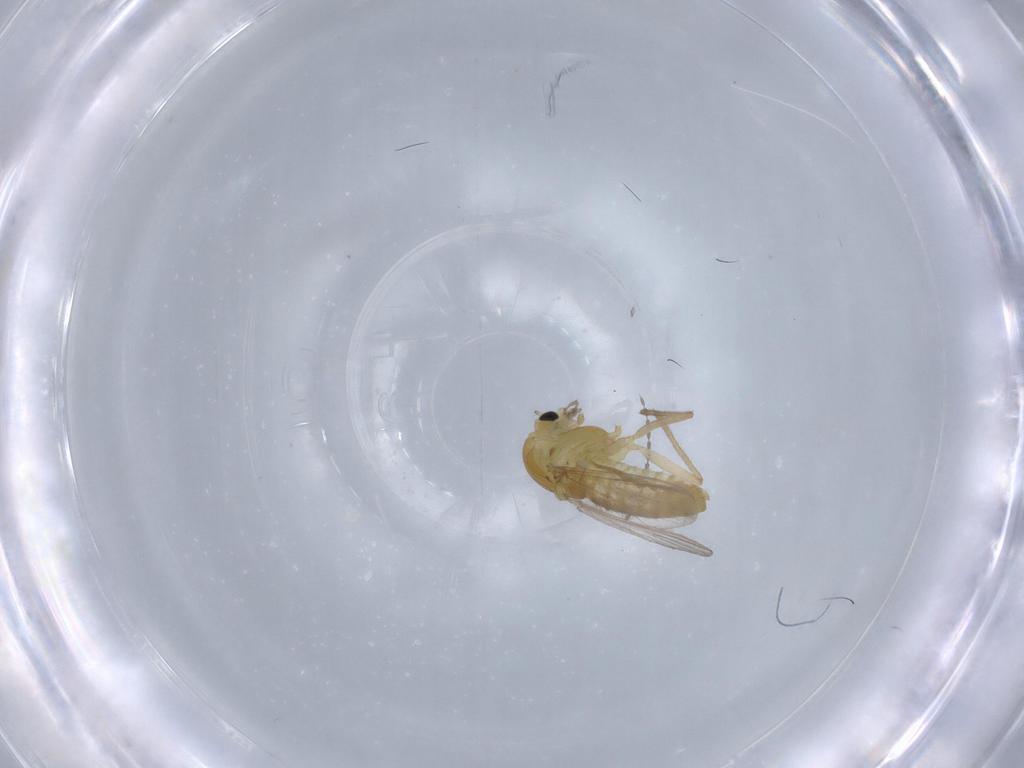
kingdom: Animalia
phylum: Arthropoda
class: Insecta
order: Diptera
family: Chironomidae
